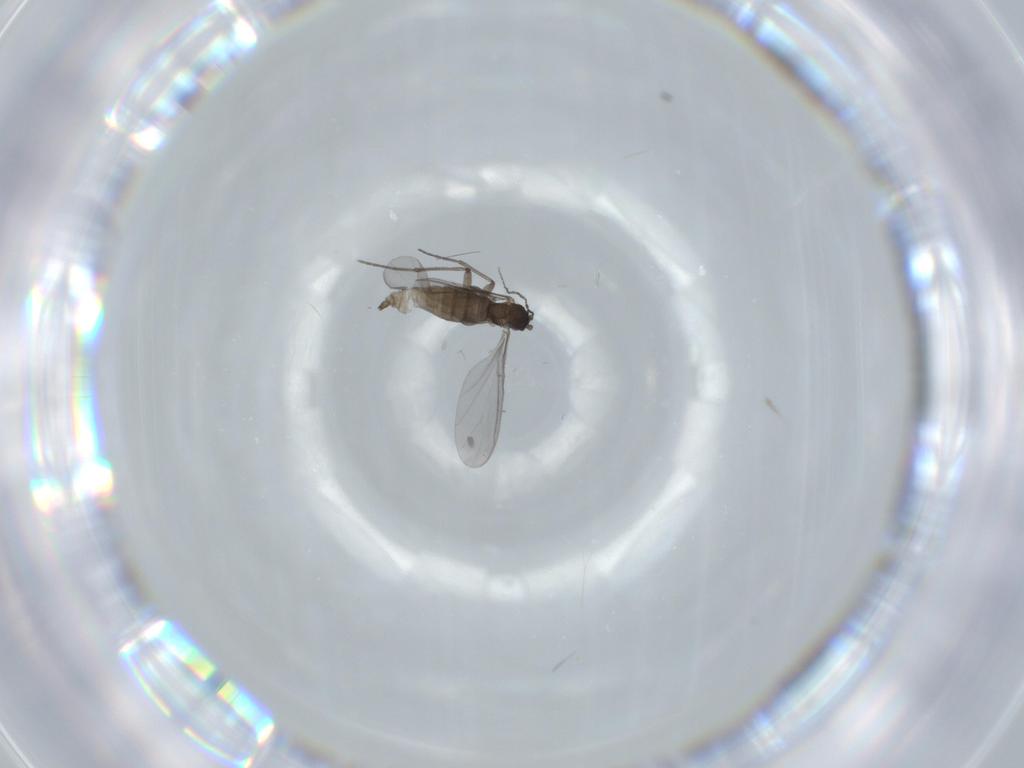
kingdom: Animalia
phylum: Arthropoda
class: Insecta
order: Diptera
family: Sciaridae
